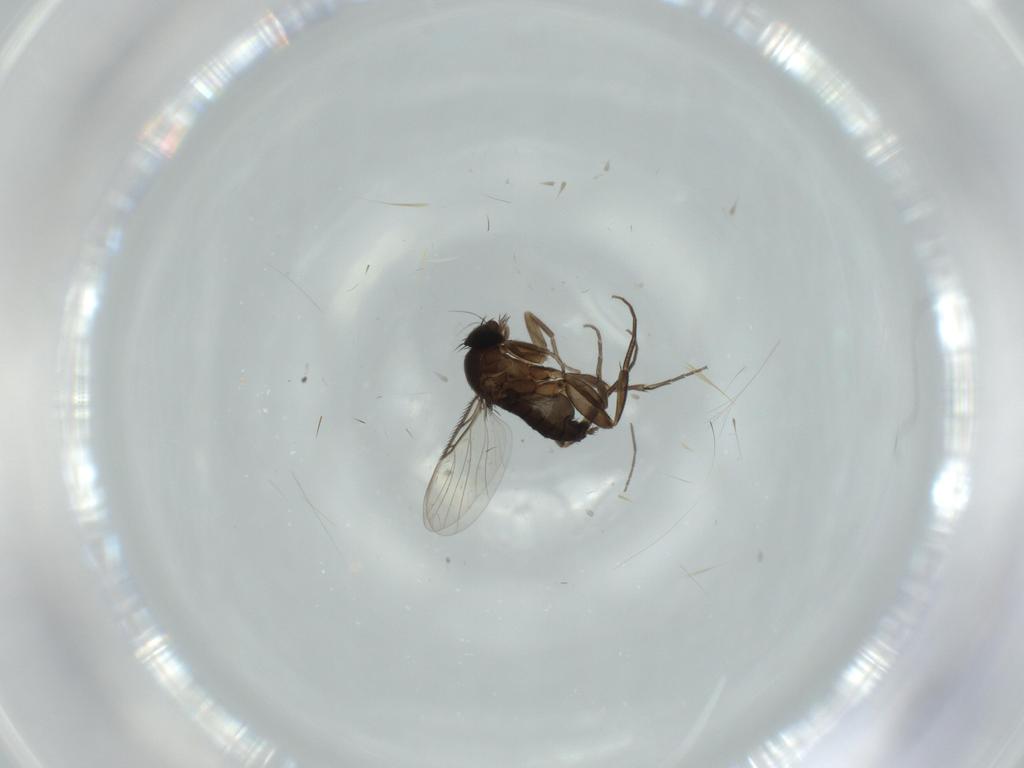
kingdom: Animalia
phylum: Arthropoda
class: Insecta
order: Diptera
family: Phoridae
